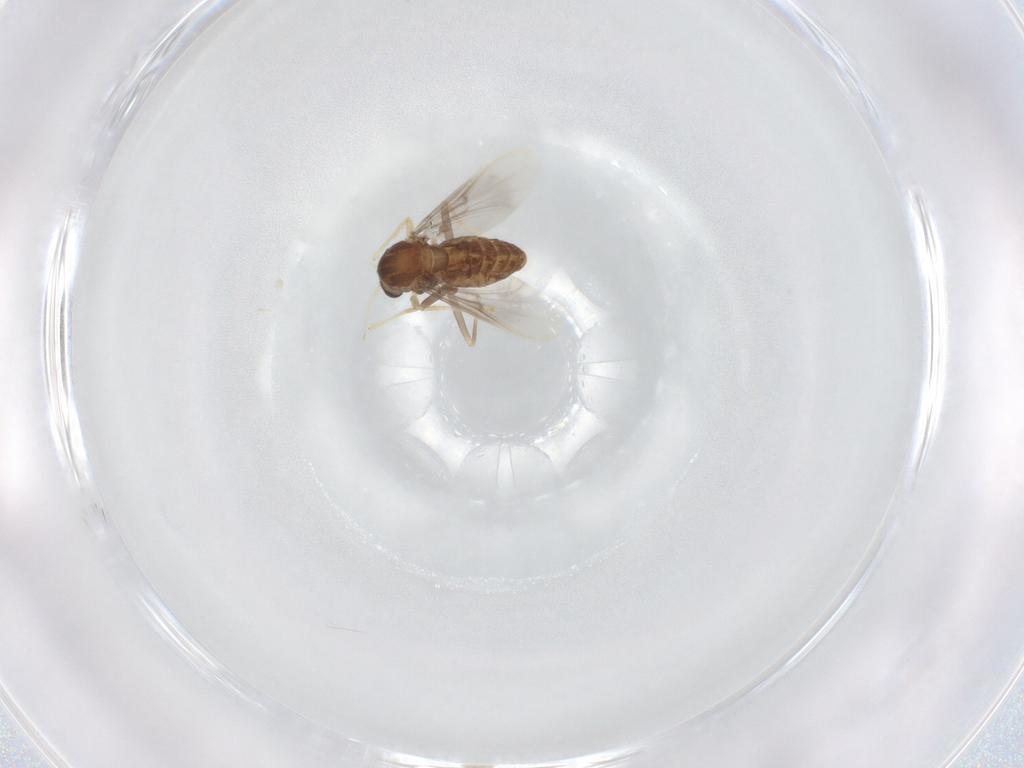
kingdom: Animalia
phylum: Arthropoda
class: Insecta
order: Diptera
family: Chironomidae
